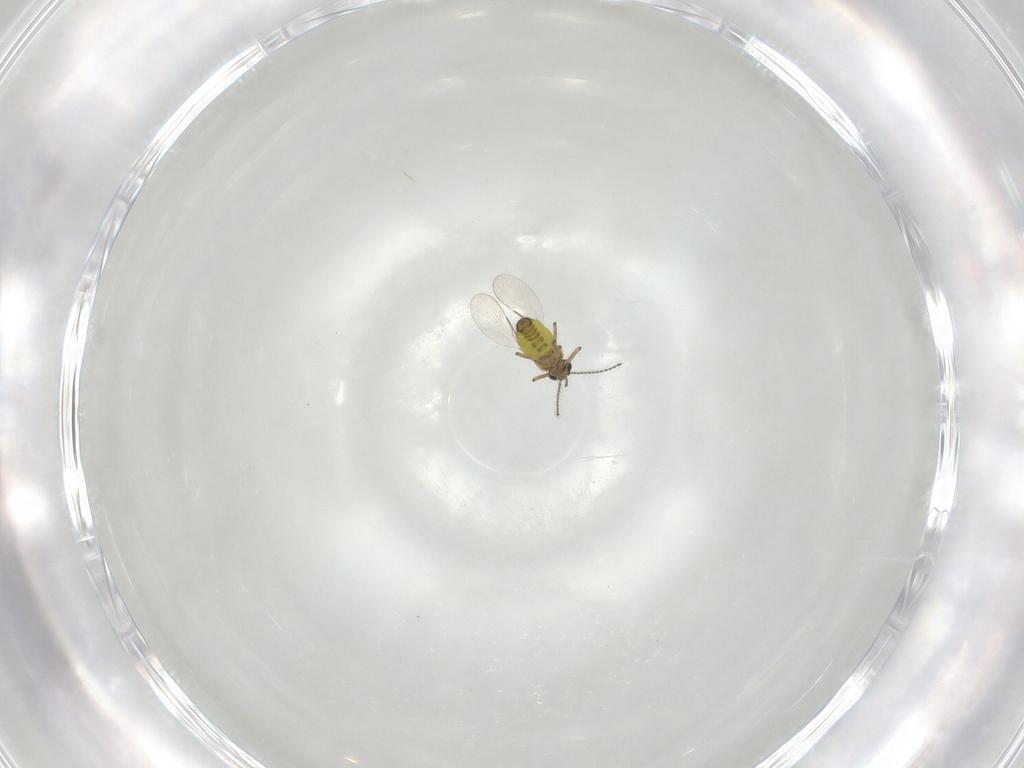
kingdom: Animalia
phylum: Arthropoda
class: Insecta
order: Diptera
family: Ceratopogonidae
